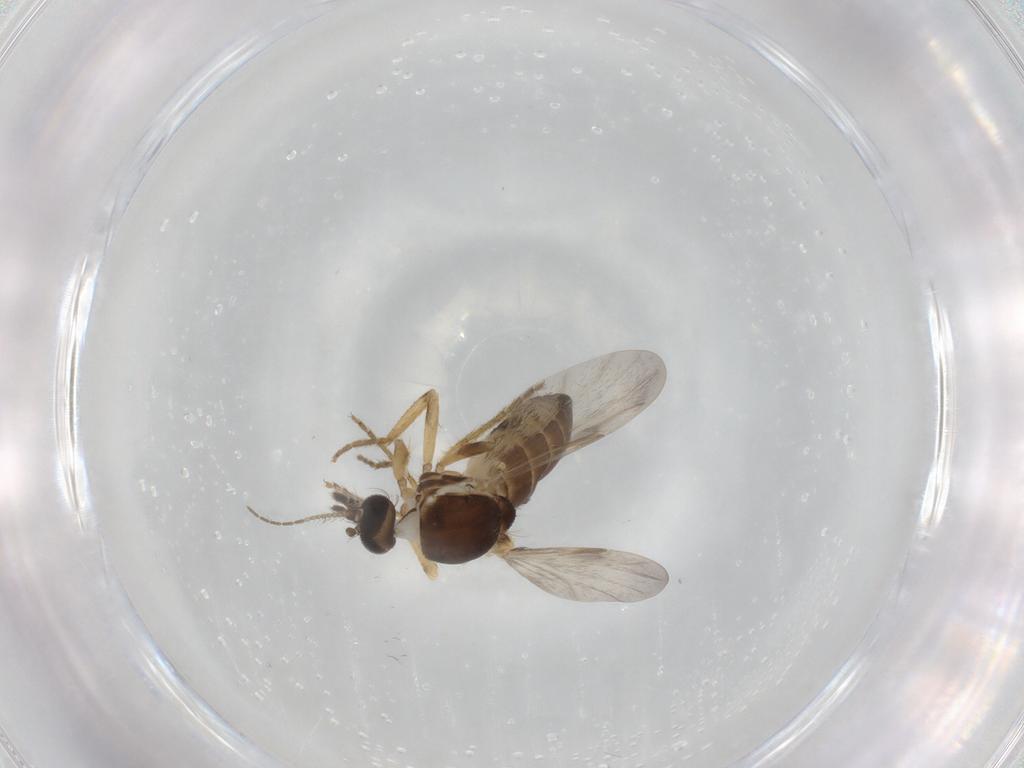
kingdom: Animalia
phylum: Arthropoda
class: Insecta
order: Diptera
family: Ceratopogonidae
